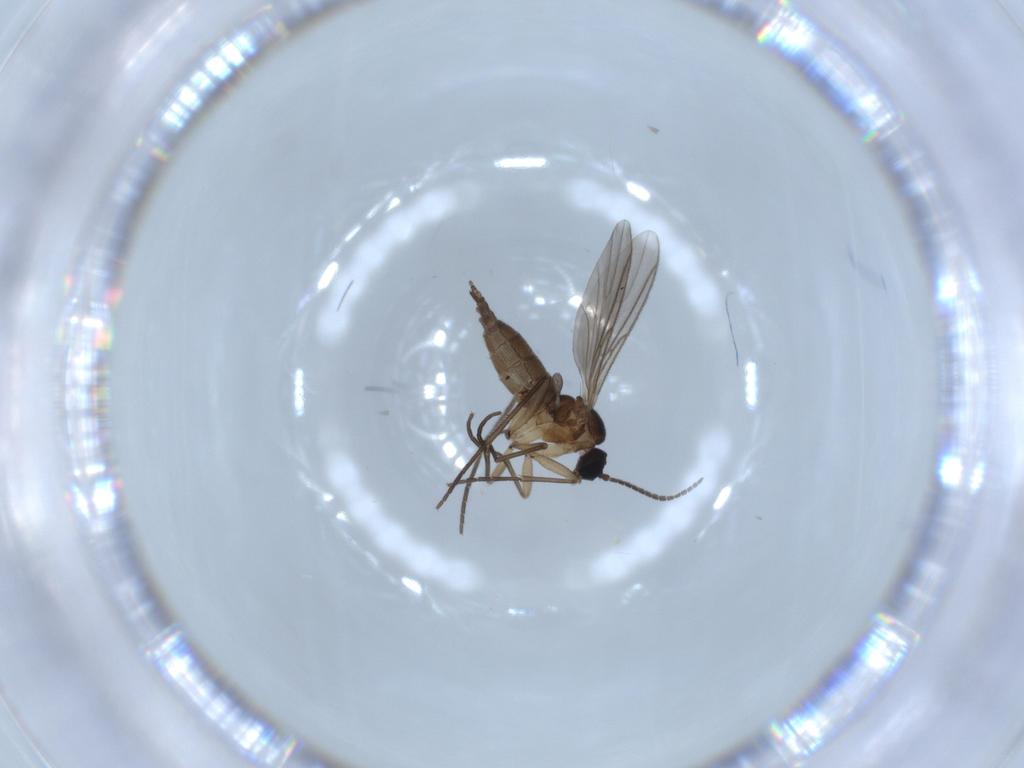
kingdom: Animalia
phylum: Arthropoda
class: Insecta
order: Diptera
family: Sciaridae
